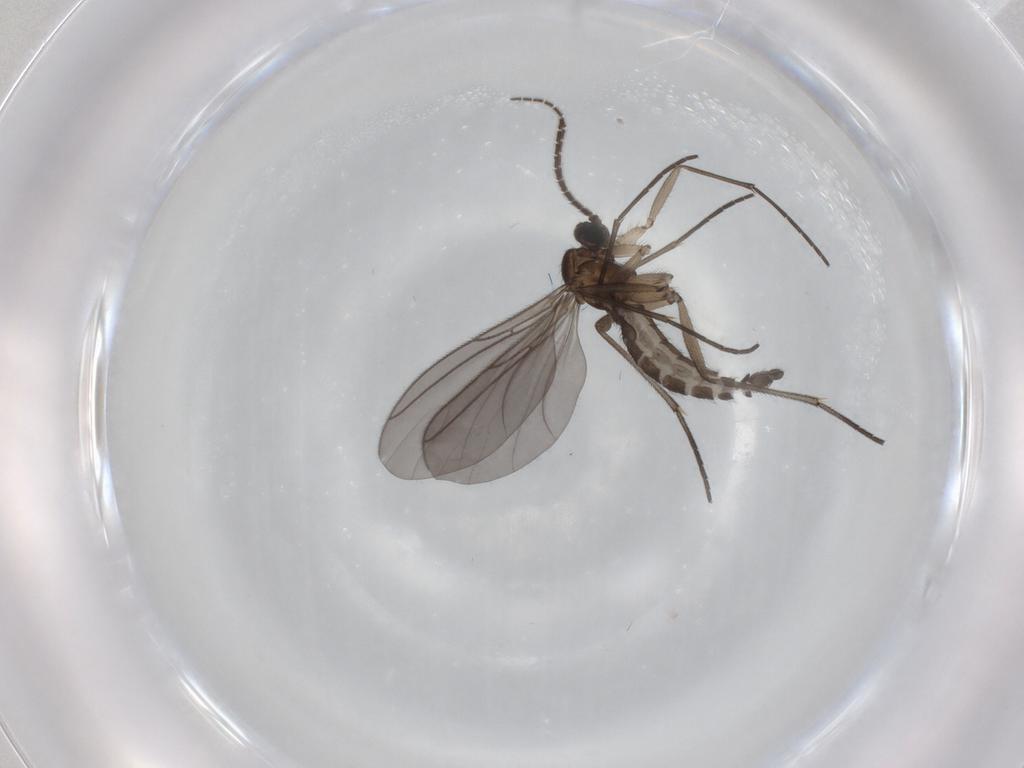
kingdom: Animalia
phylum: Arthropoda
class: Insecta
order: Diptera
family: Sciaridae
